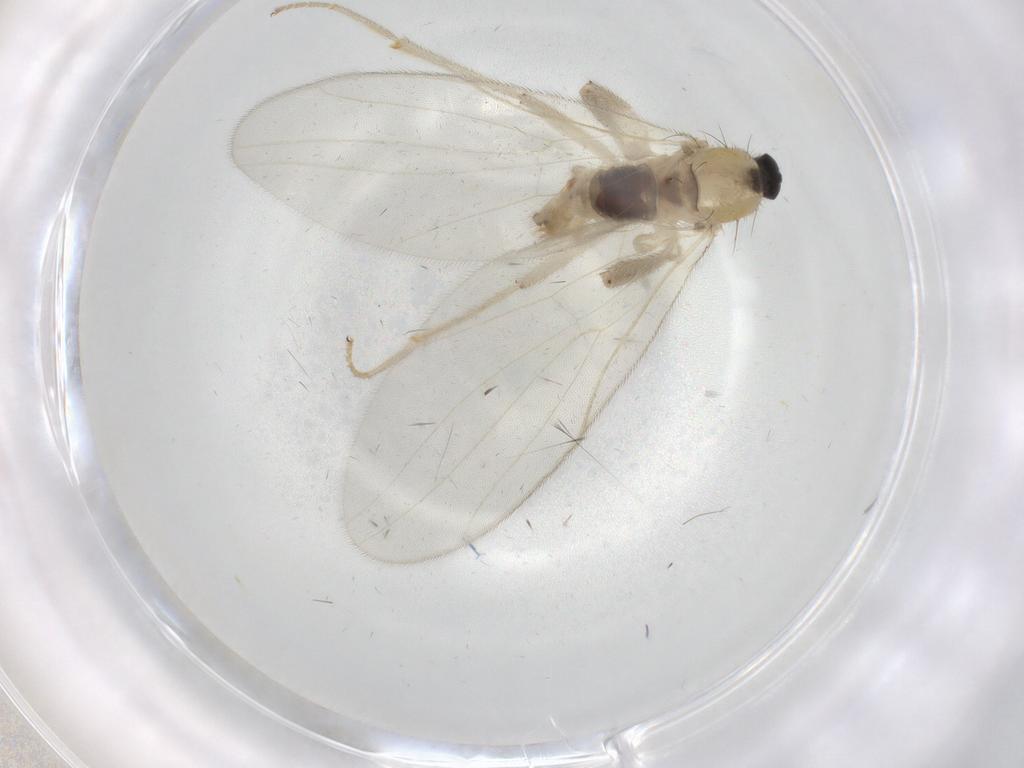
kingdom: Animalia
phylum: Arthropoda
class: Insecta
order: Diptera
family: Hybotidae
